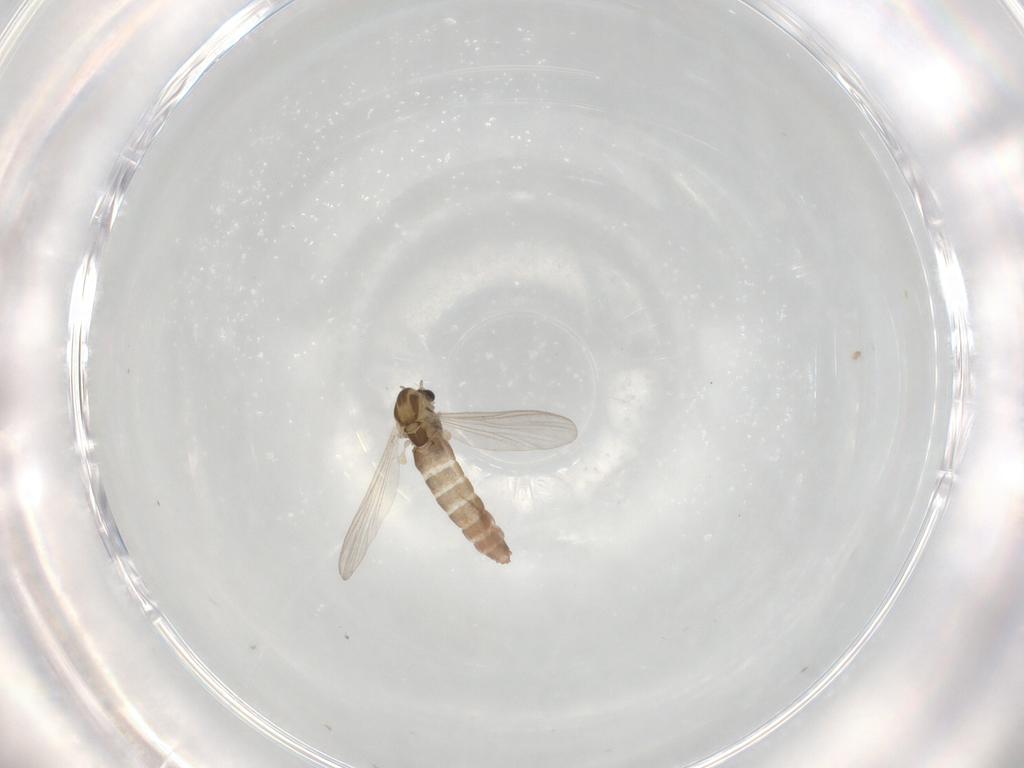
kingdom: Animalia
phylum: Arthropoda
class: Insecta
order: Diptera
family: Chironomidae
